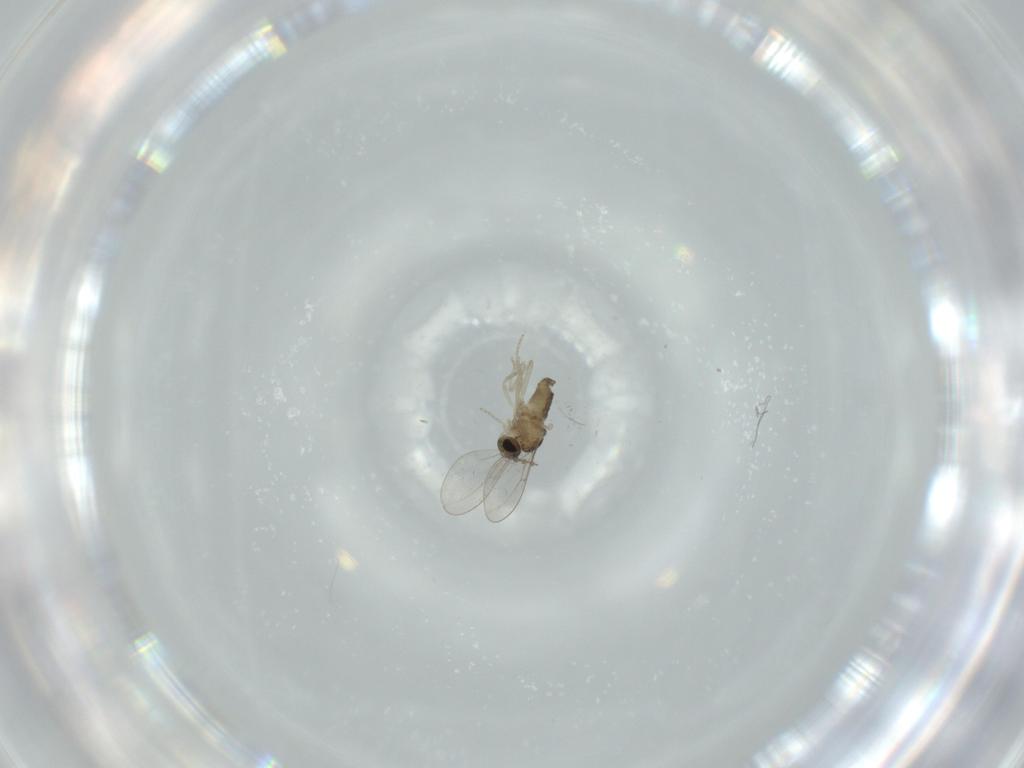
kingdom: Animalia
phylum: Arthropoda
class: Insecta
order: Diptera
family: Cecidomyiidae
